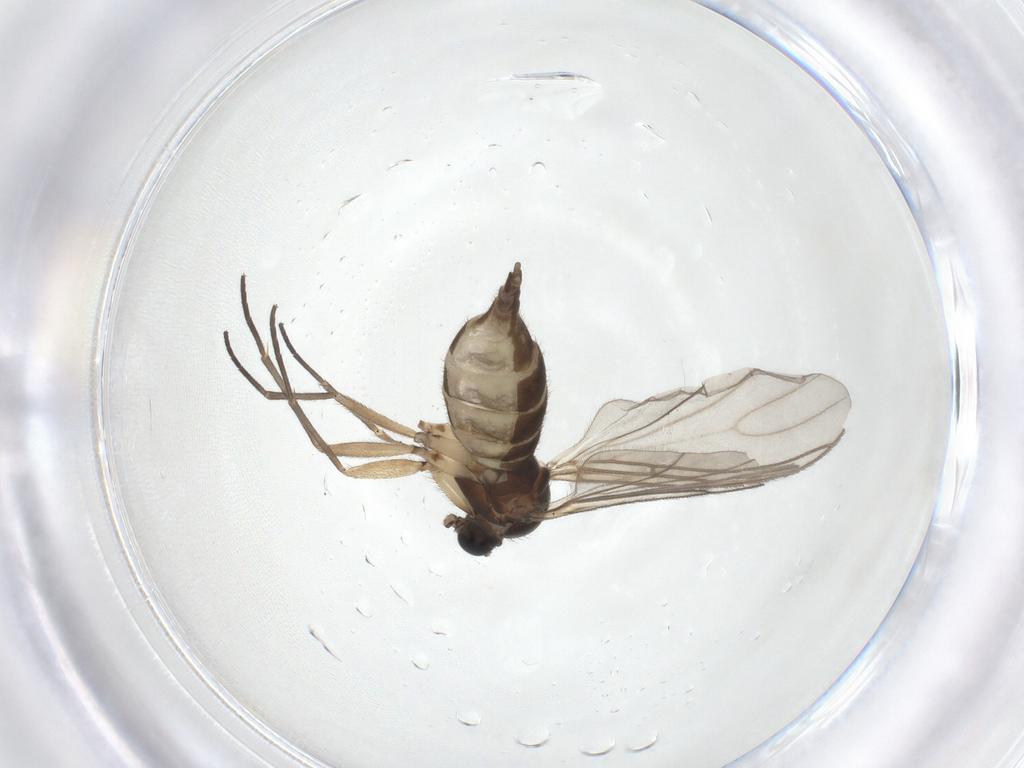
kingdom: Animalia
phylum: Arthropoda
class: Insecta
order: Diptera
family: Sciaridae
